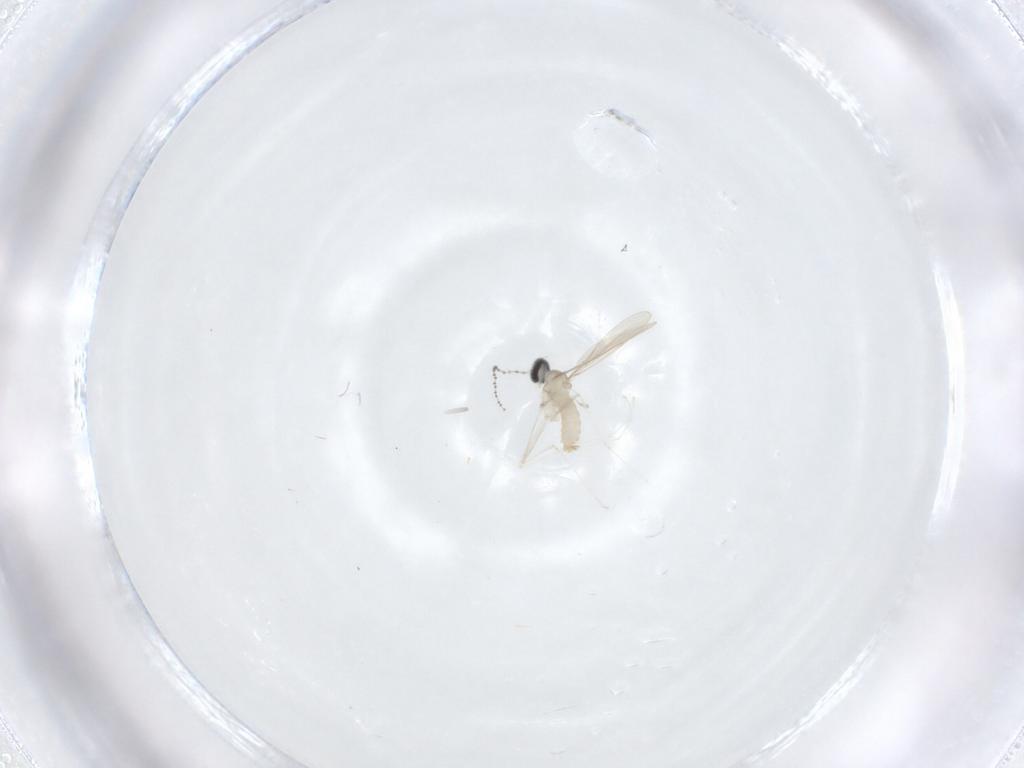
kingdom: Animalia
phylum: Arthropoda
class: Insecta
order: Diptera
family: Cecidomyiidae
